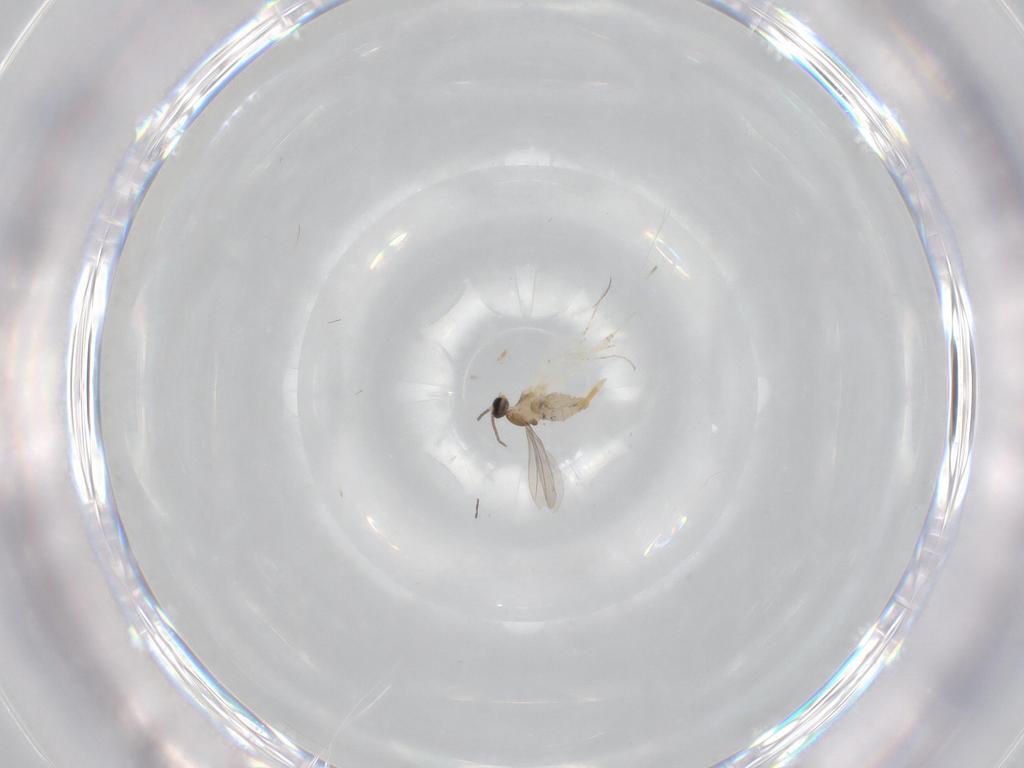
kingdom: Animalia
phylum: Arthropoda
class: Insecta
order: Diptera
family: Cecidomyiidae
